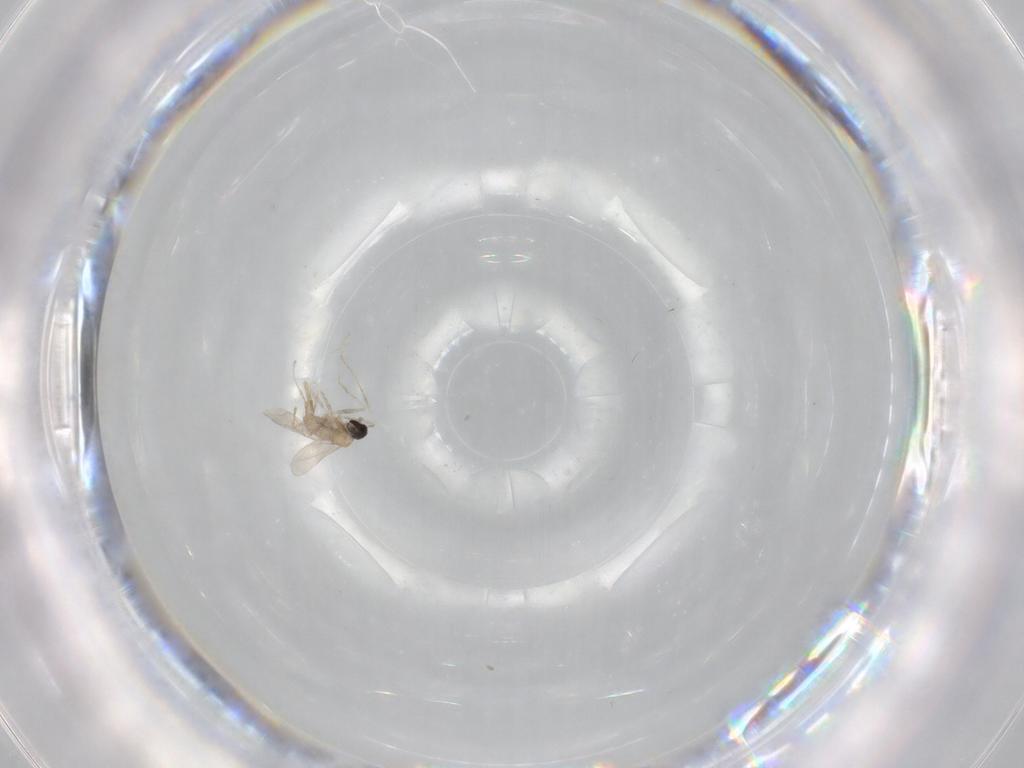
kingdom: Animalia
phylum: Arthropoda
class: Insecta
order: Diptera
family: Cecidomyiidae
